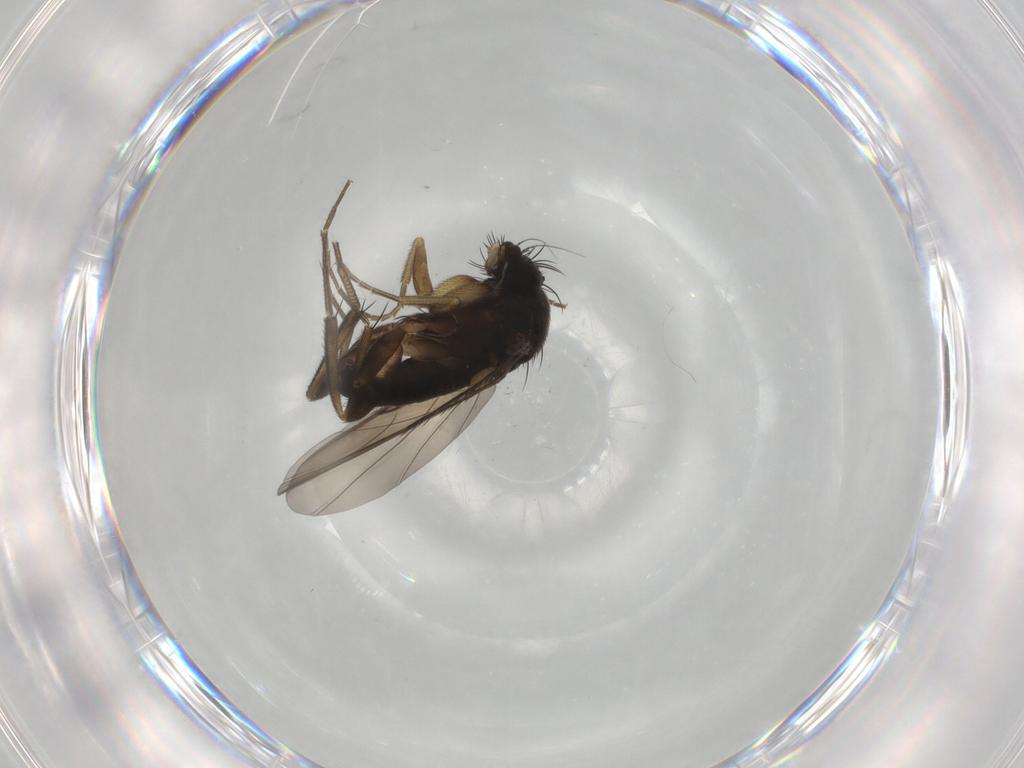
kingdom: Animalia
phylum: Arthropoda
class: Insecta
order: Diptera
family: Phoridae
